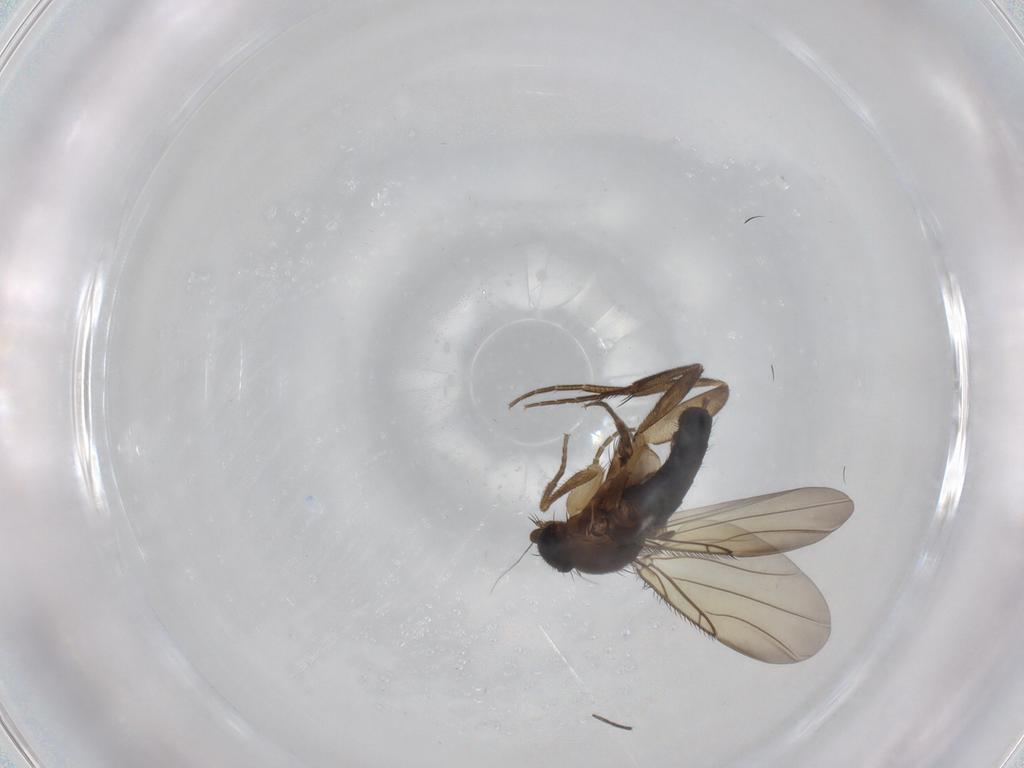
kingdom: Animalia
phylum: Arthropoda
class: Insecta
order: Diptera
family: Phoridae
